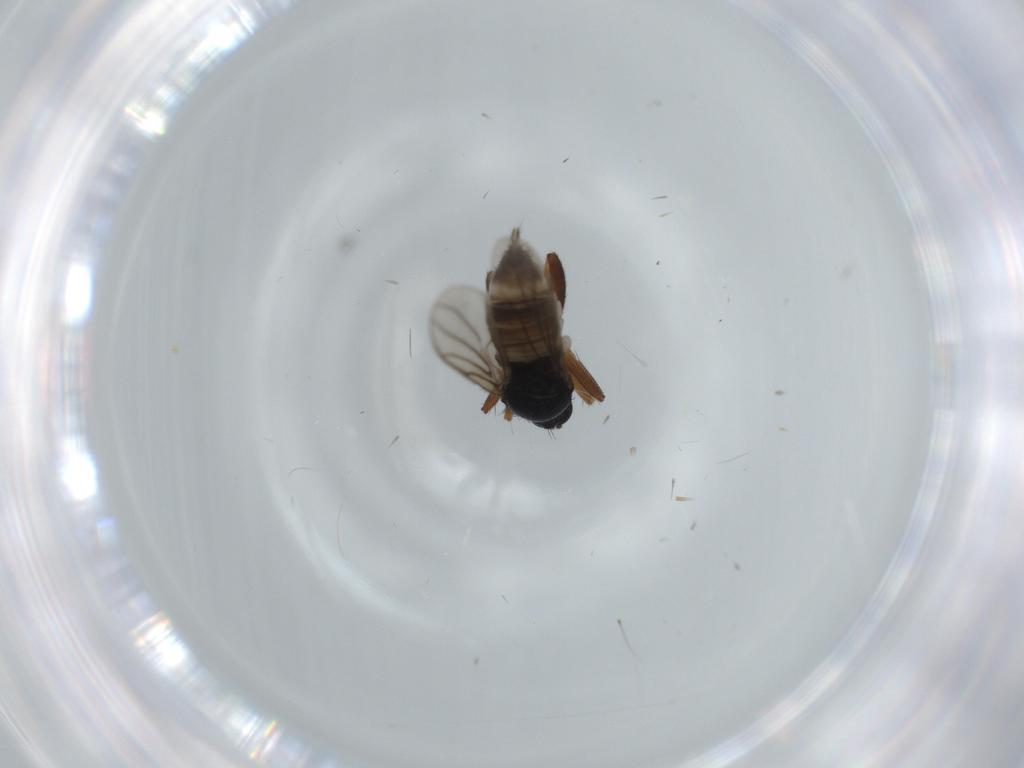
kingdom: Animalia
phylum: Arthropoda
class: Insecta
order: Diptera
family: Hybotidae
